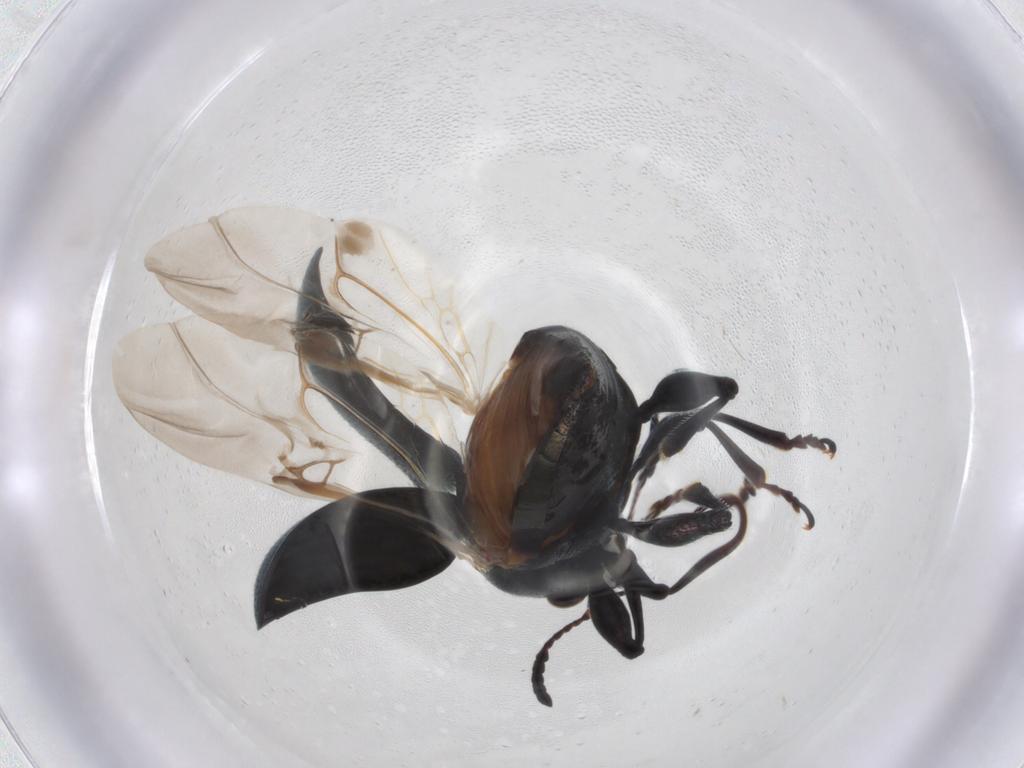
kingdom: Animalia
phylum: Arthropoda
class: Insecta
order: Coleoptera
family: Chrysomelidae
